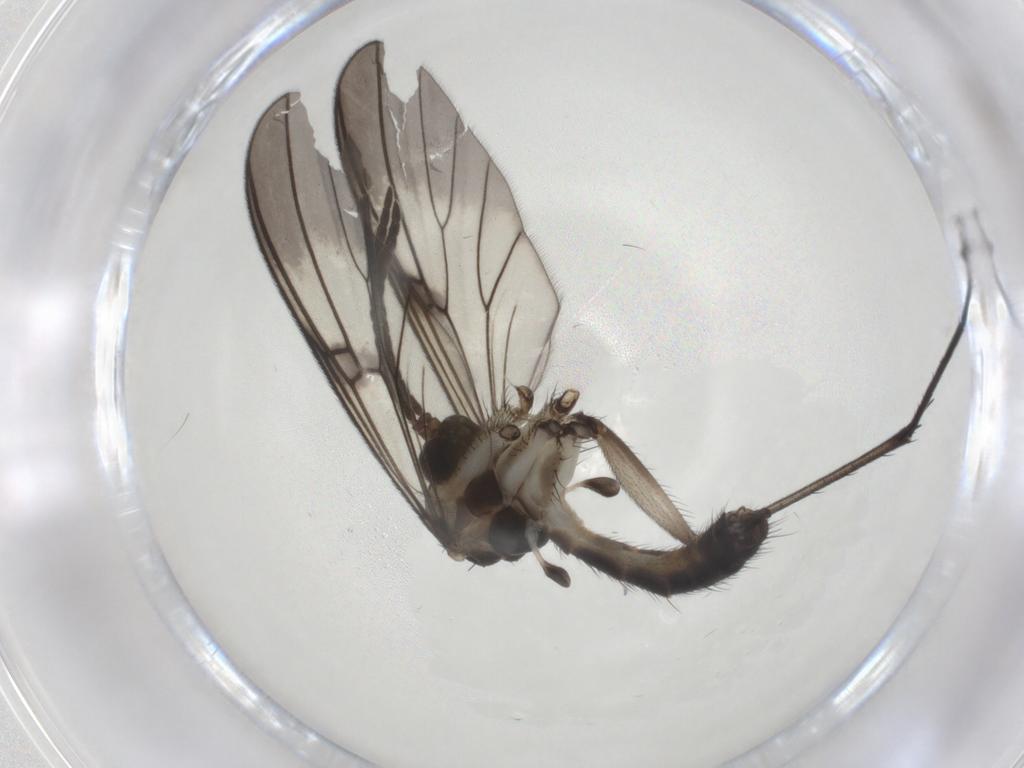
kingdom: Animalia
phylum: Arthropoda
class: Insecta
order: Diptera
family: Mycetophilidae
